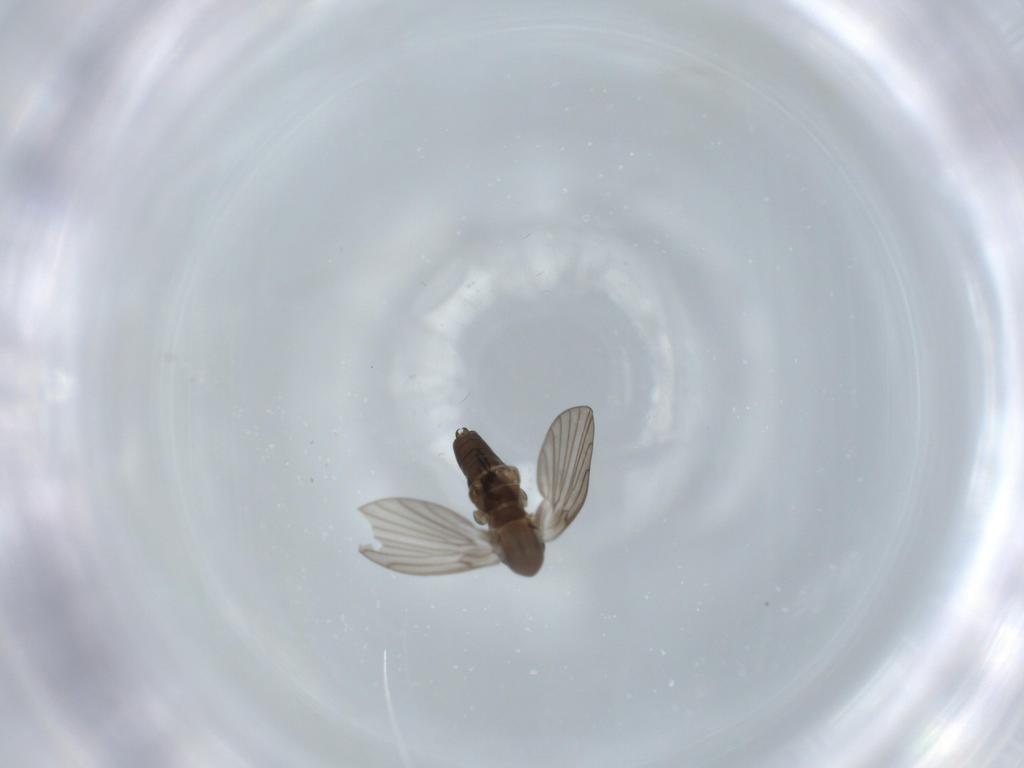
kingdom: Animalia
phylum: Arthropoda
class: Insecta
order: Diptera
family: Psychodidae
